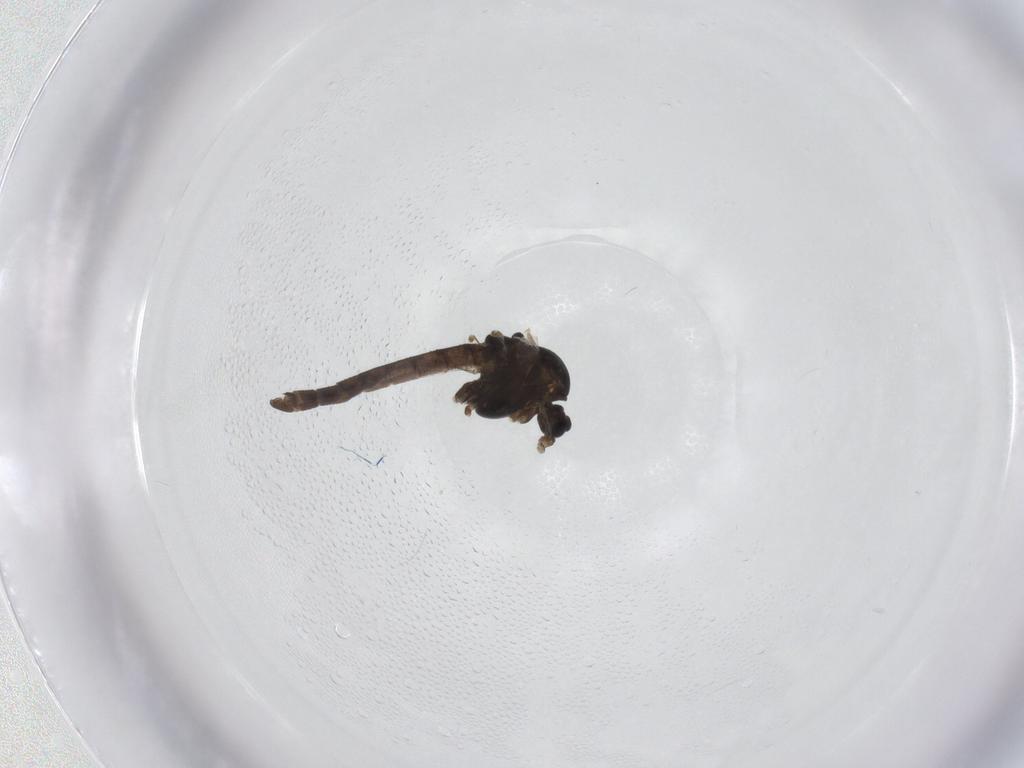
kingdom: Animalia
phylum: Arthropoda
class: Insecta
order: Diptera
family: Chironomidae
